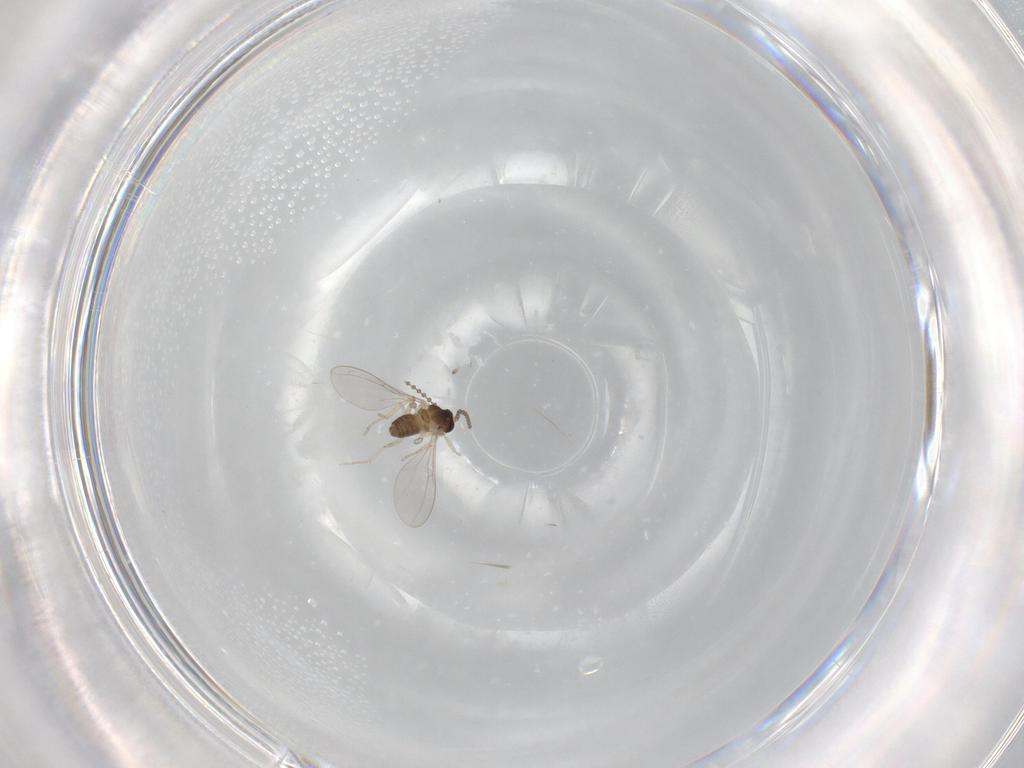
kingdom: Animalia
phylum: Arthropoda
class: Insecta
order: Diptera
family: Cecidomyiidae
